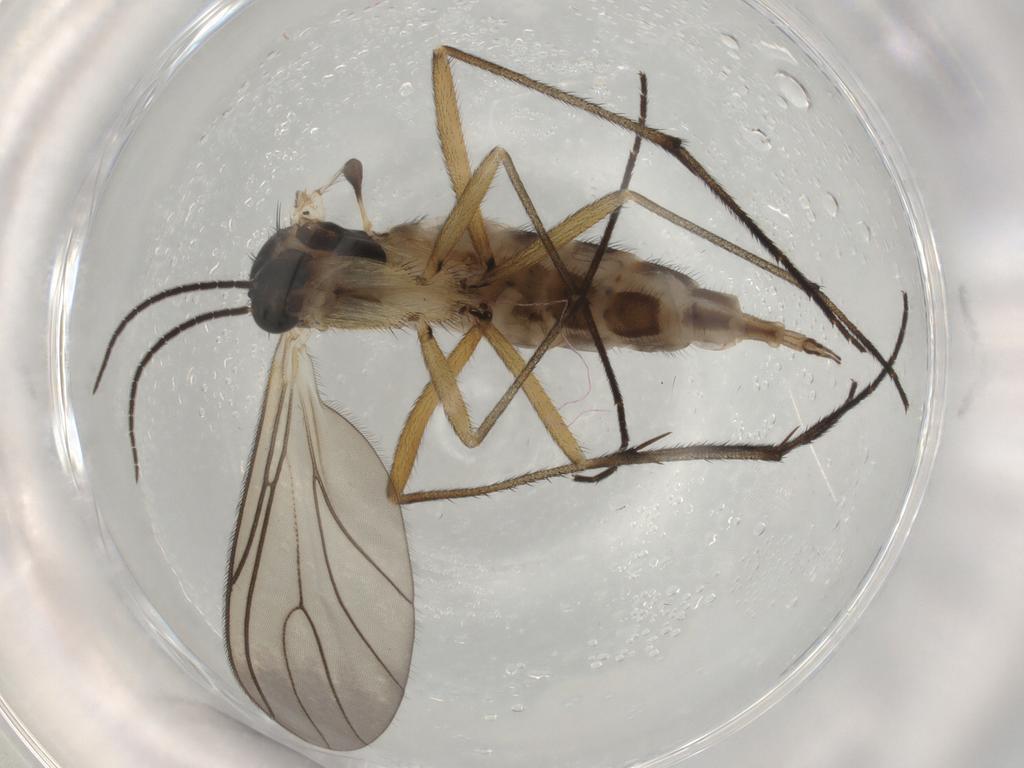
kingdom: Animalia
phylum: Arthropoda
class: Insecta
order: Diptera
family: Sciaridae
